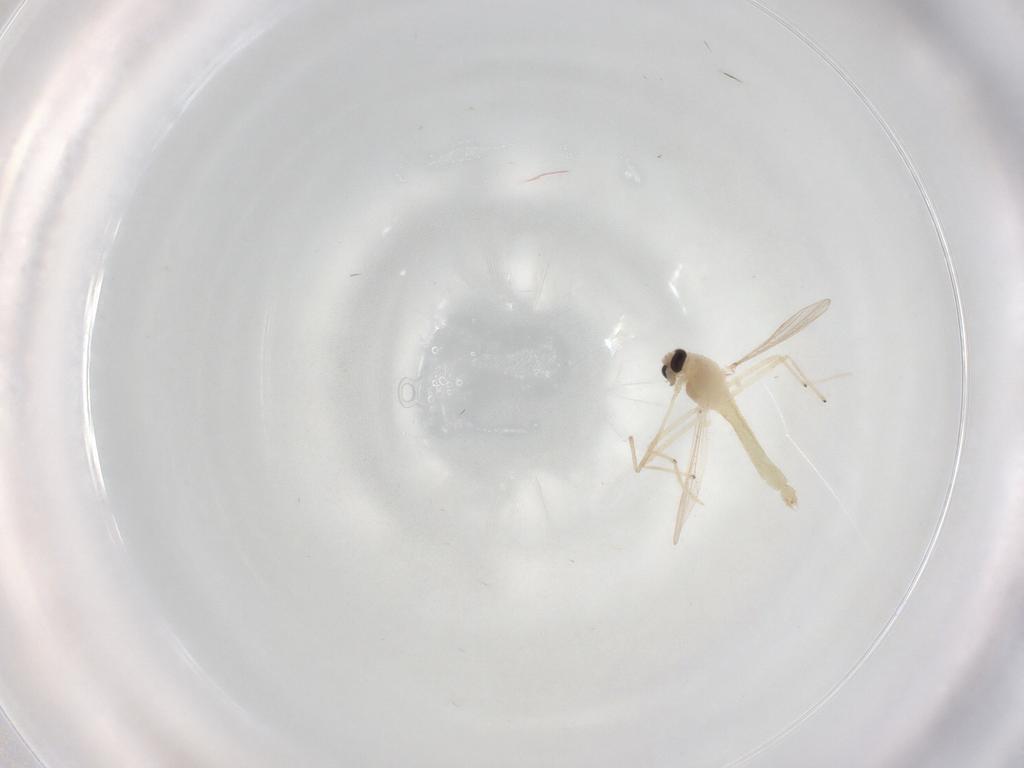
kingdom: Animalia
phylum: Arthropoda
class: Insecta
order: Diptera
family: Chironomidae
